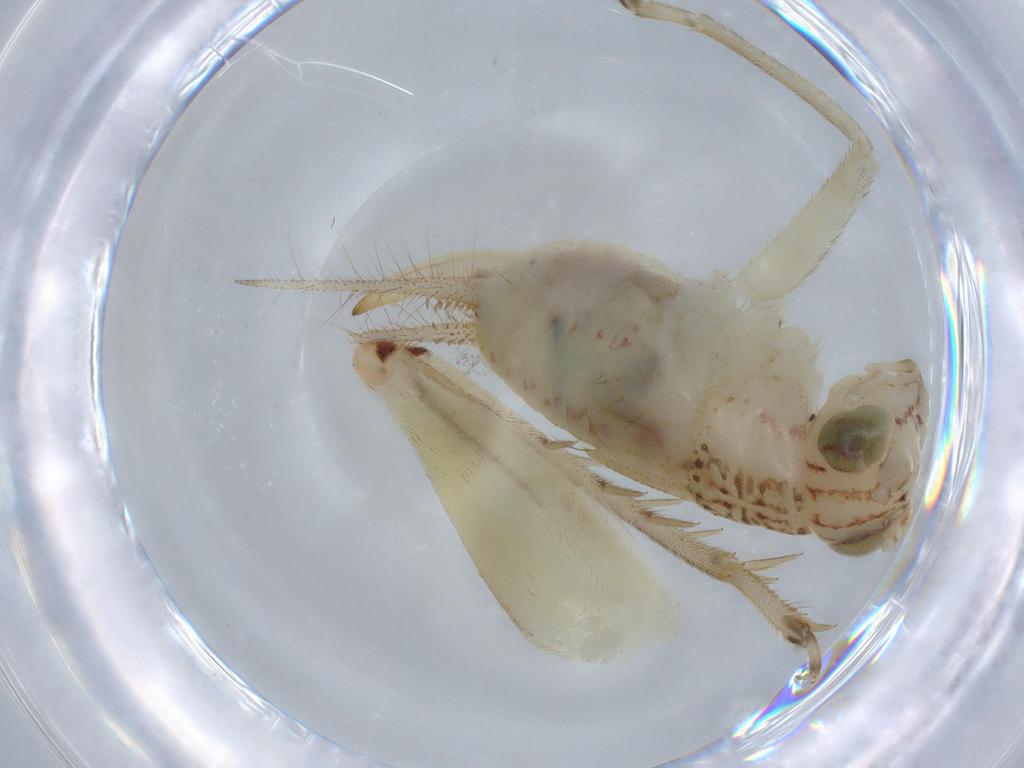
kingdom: Animalia
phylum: Arthropoda
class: Insecta
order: Orthoptera
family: Trigonidiidae
